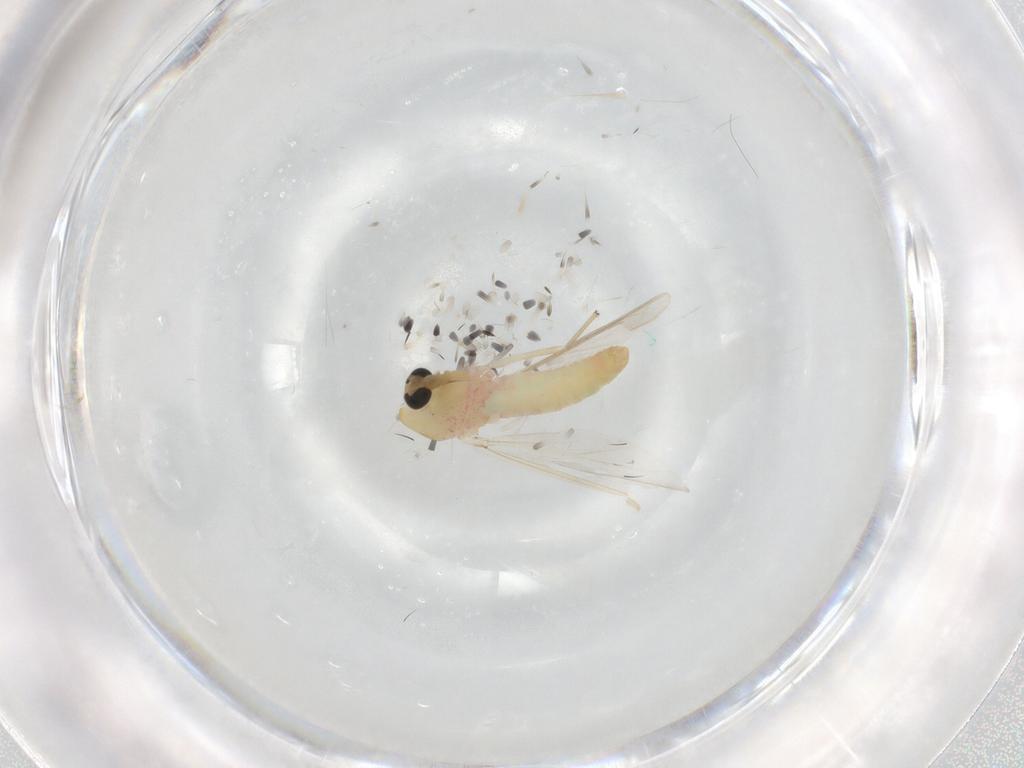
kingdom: Animalia
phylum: Arthropoda
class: Insecta
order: Diptera
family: Chironomidae
